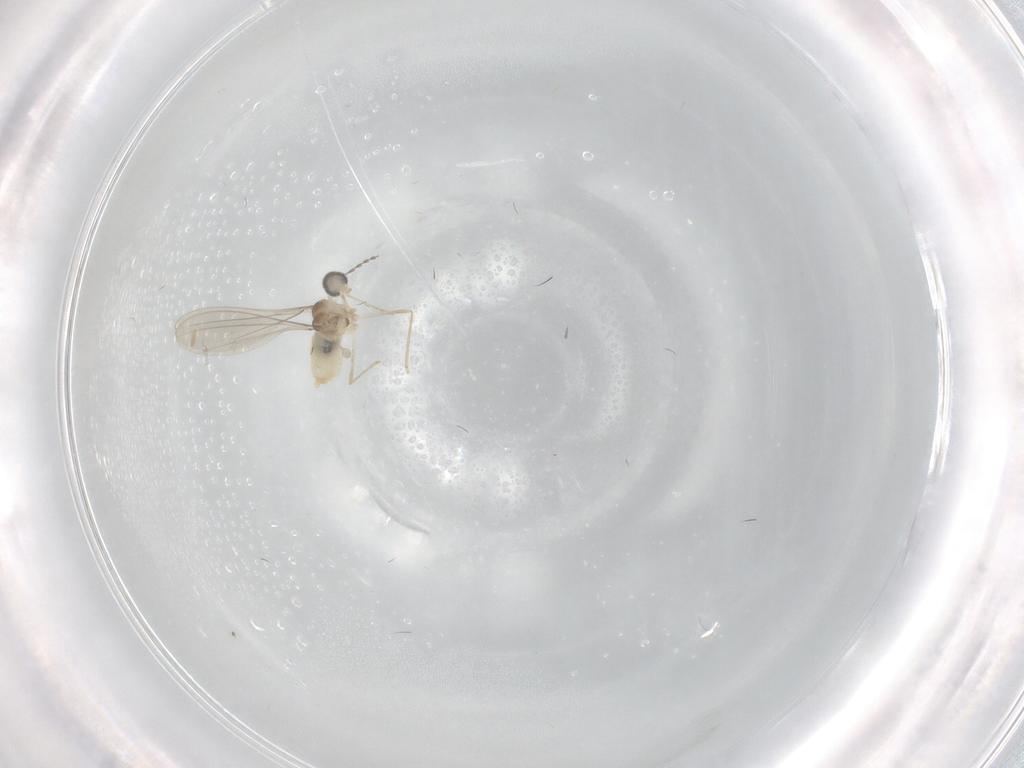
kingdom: Animalia
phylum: Arthropoda
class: Insecta
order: Diptera
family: Cecidomyiidae
